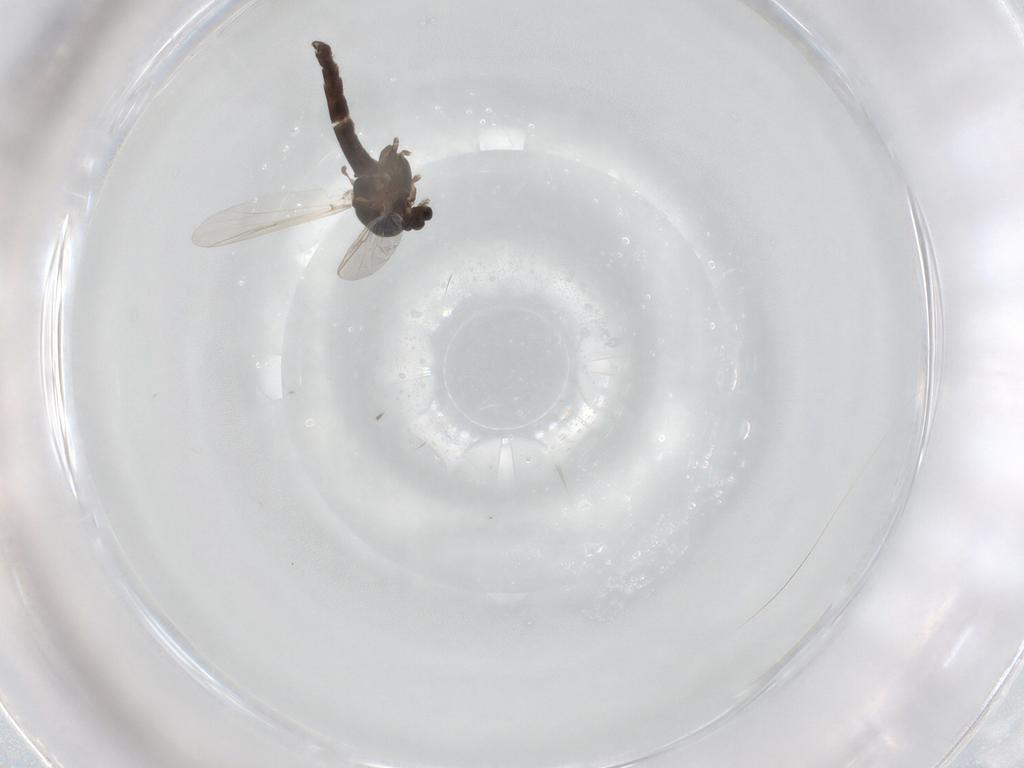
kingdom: Animalia
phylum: Arthropoda
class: Insecta
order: Diptera
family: Chironomidae
